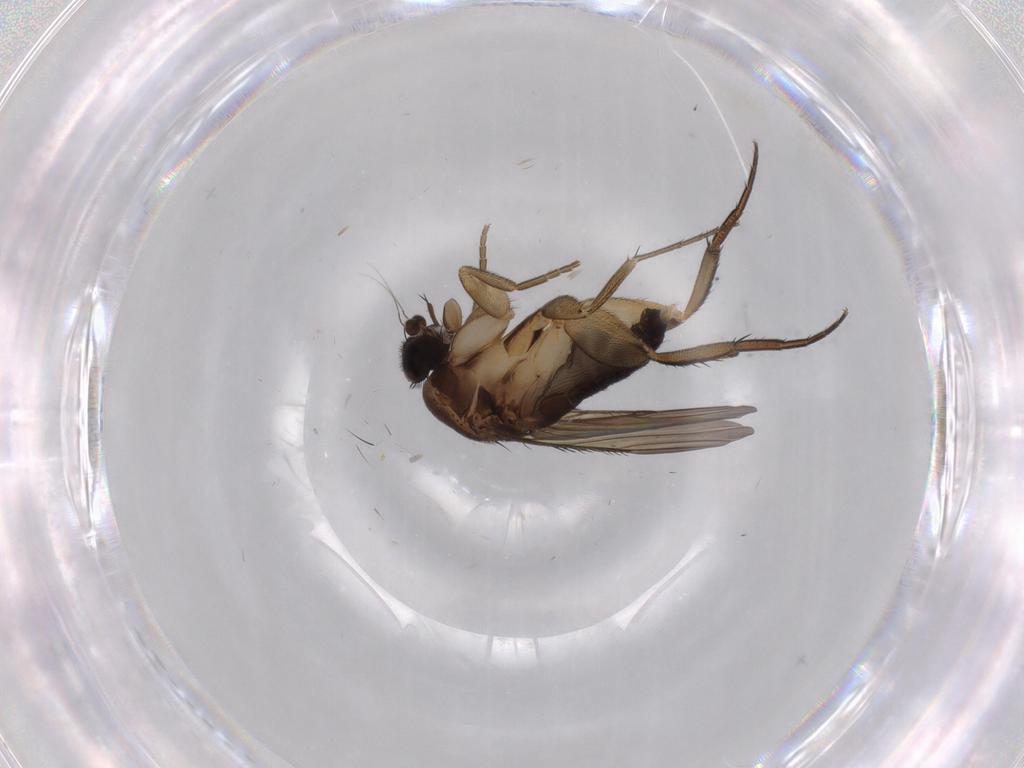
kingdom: Animalia
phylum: Arthropoda
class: Insecta
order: Diptera
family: Phoridae
